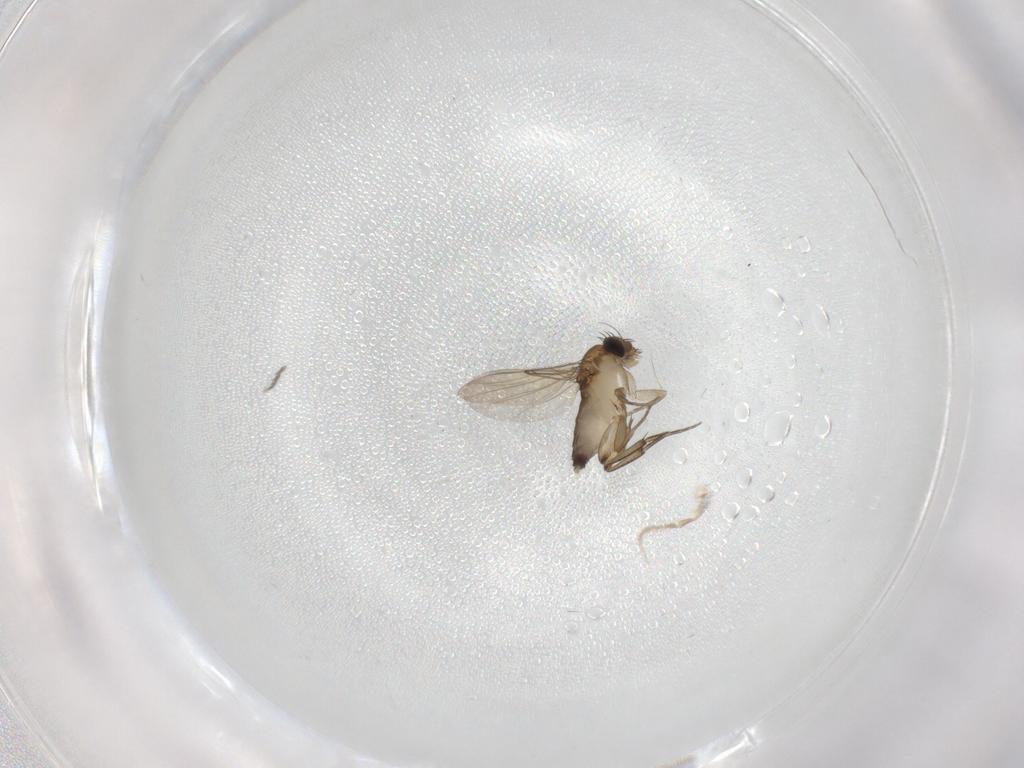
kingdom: Animalia
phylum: Arthropoda
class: Insecta
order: Diptera
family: Phoridae
